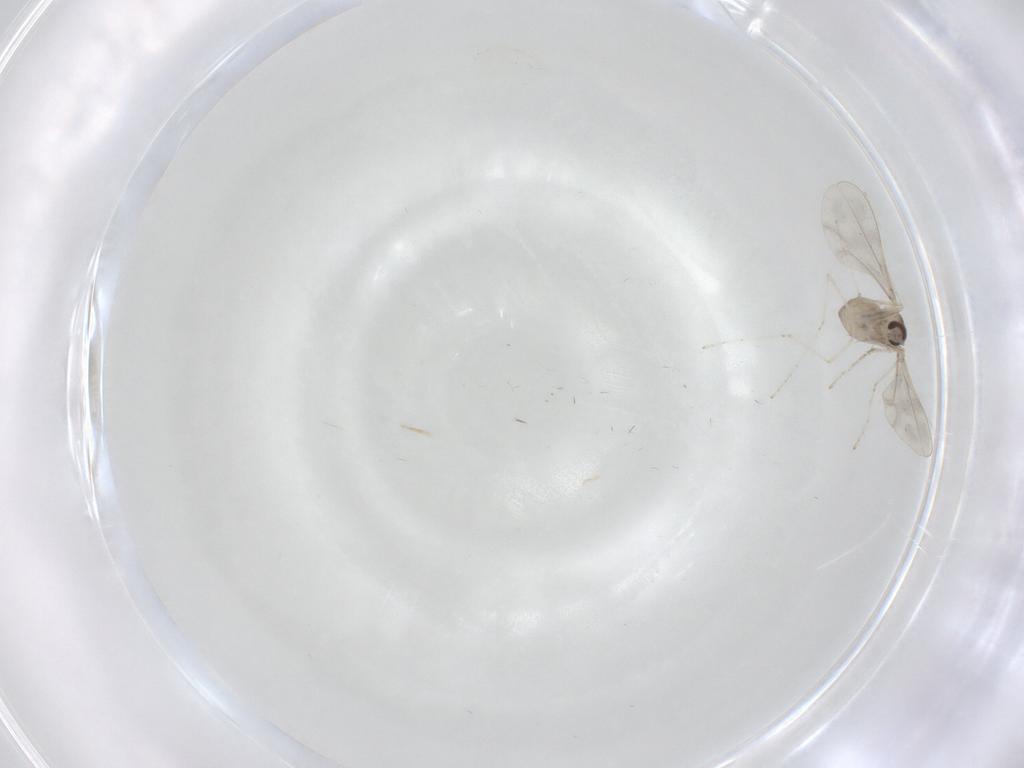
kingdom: Animalia
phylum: Arthropoda
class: Insecta
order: Diptera
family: Cecidomyiidae
